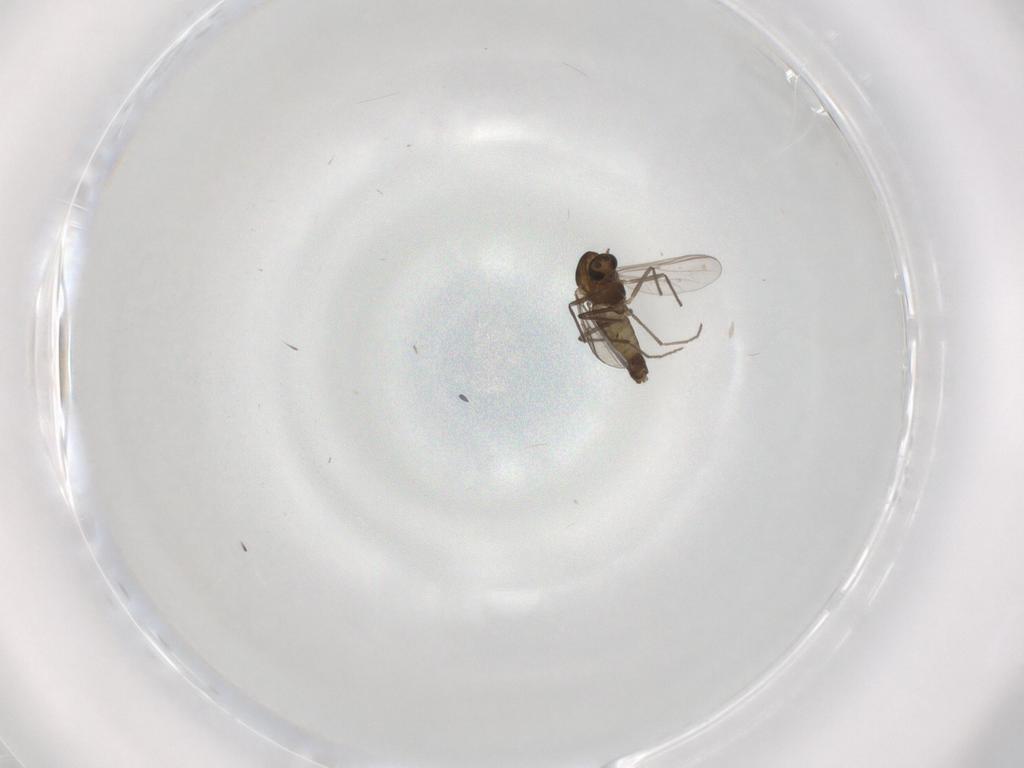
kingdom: Animalia
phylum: Arthropoda
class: Insecta
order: Diptera
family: Chironomidae
